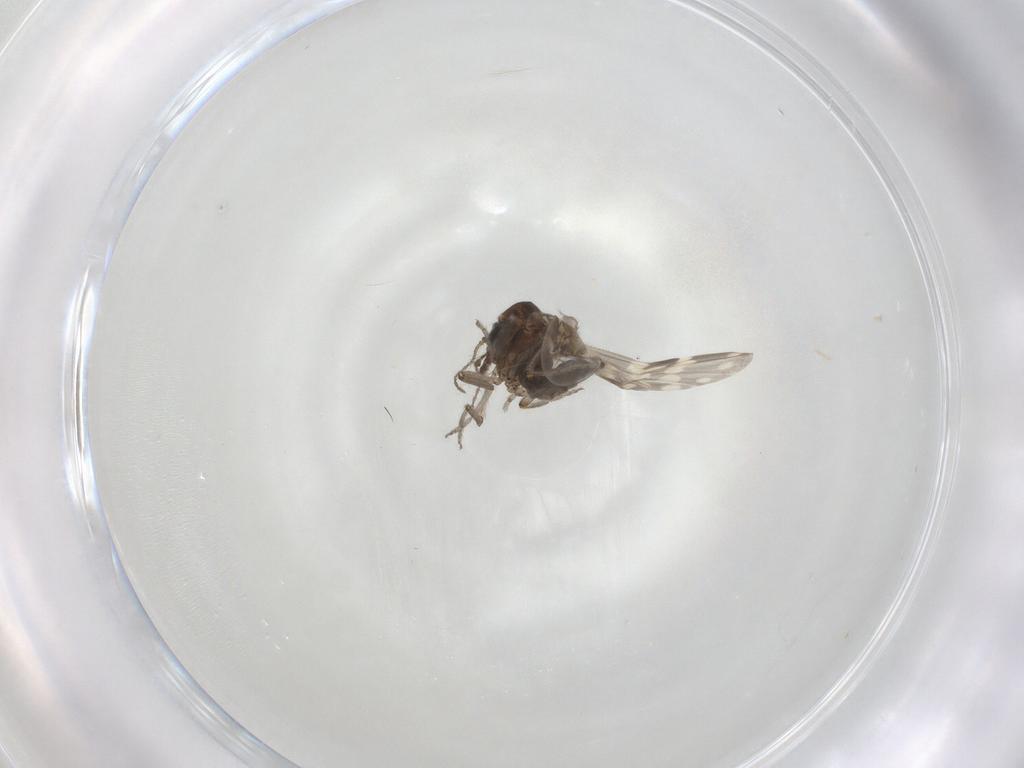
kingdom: Animalia
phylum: Arthropoda
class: Insecta
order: Diptera
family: Ceratopogonidae
